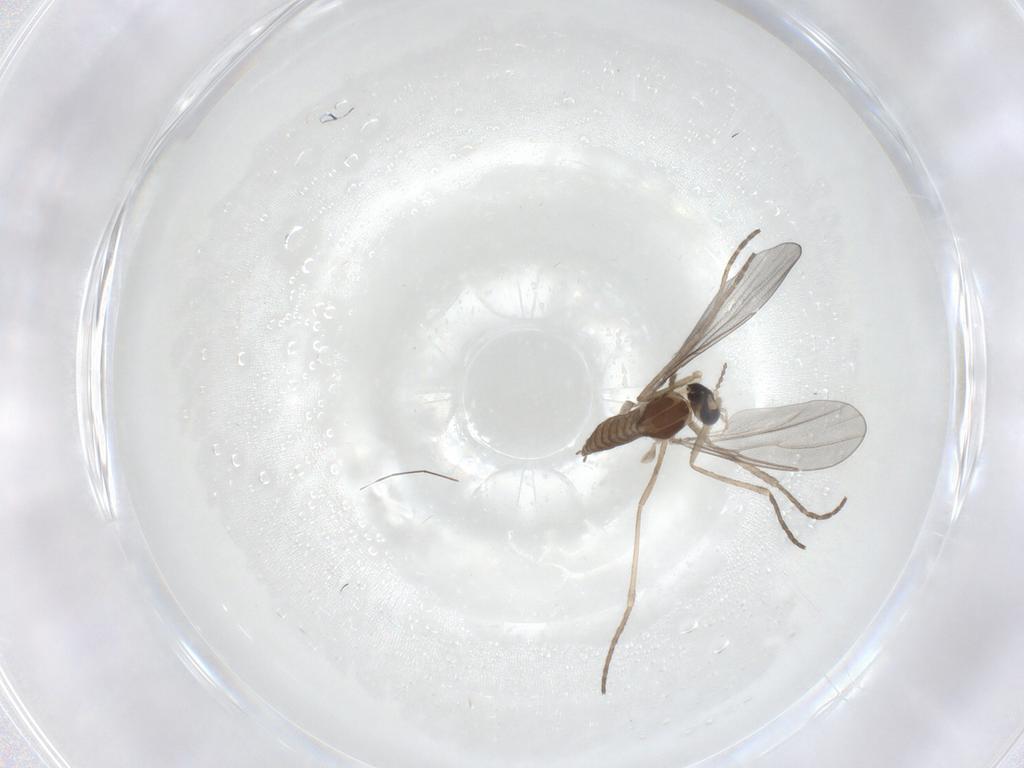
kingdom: Animalia
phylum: Arthropoda
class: Insecta
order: Diptera
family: Cecidomyiidae
